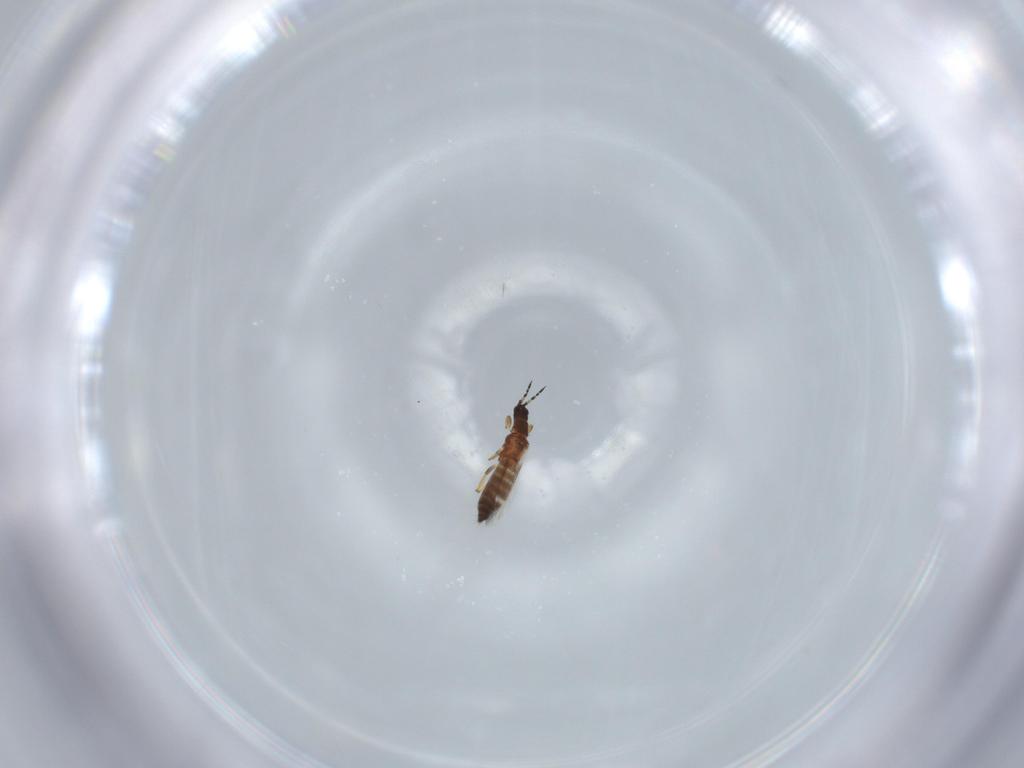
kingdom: Animalia
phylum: Arthropoda
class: Insecta
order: Thysanoptera
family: Thripidae
